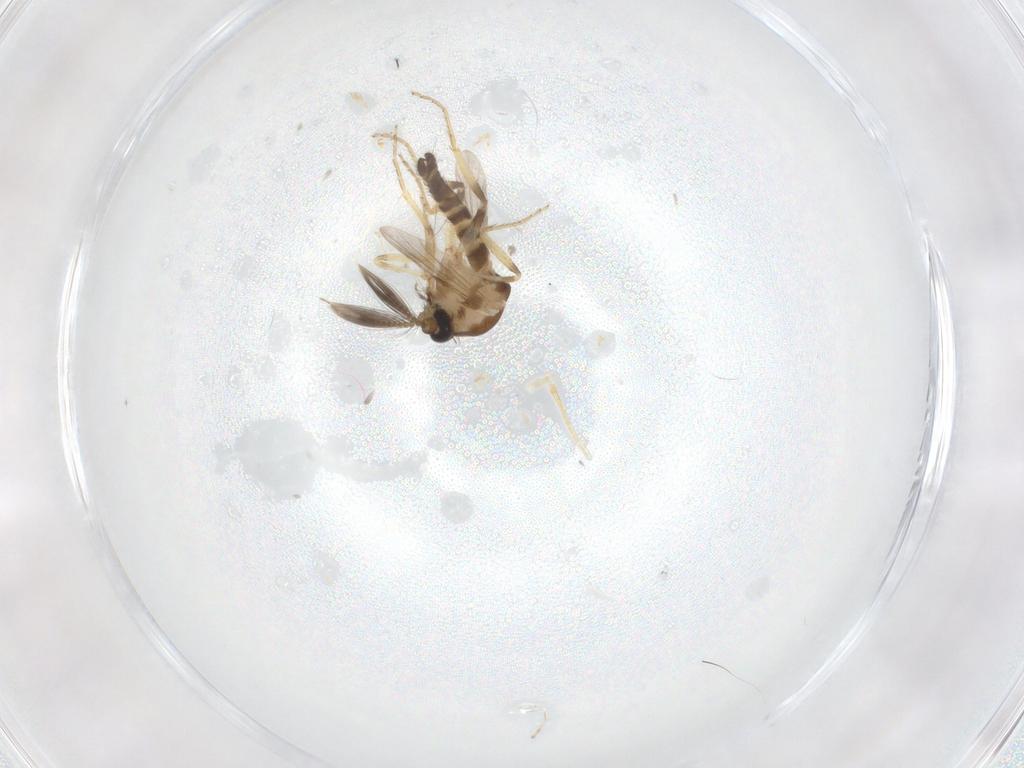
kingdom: Animalia
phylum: Arthropoda
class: Insecta
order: Diptera
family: Ceratopogonidae
